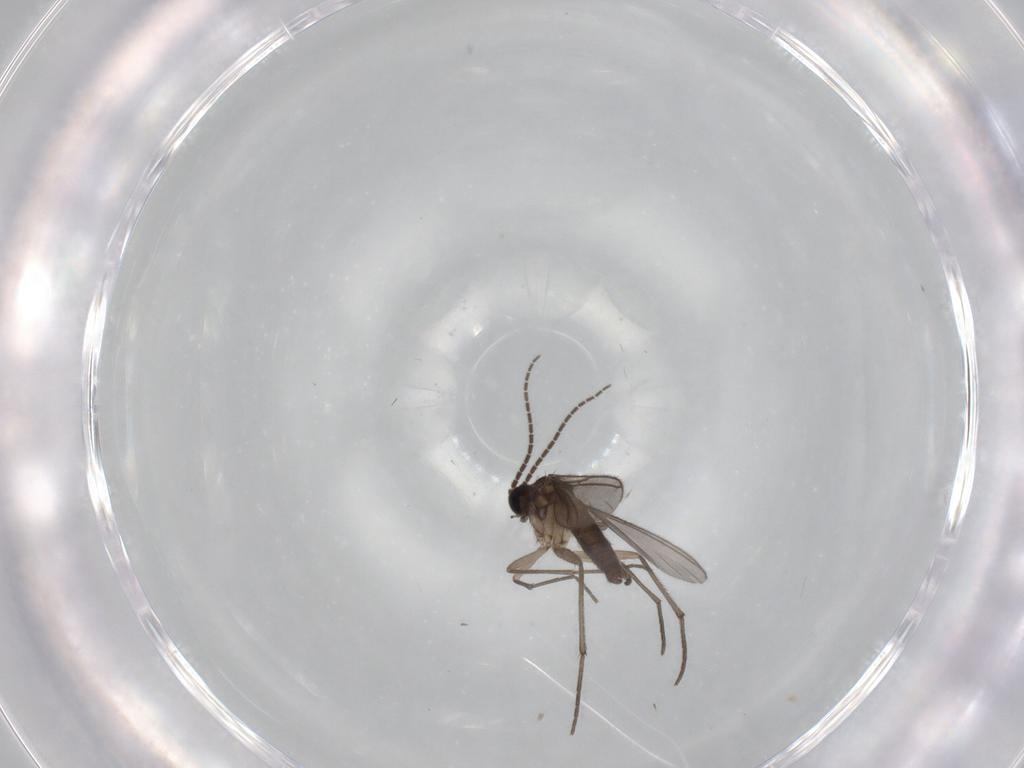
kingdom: Animalia
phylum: Arthropoda
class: Insecta
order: Diptera
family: Sciaridae
